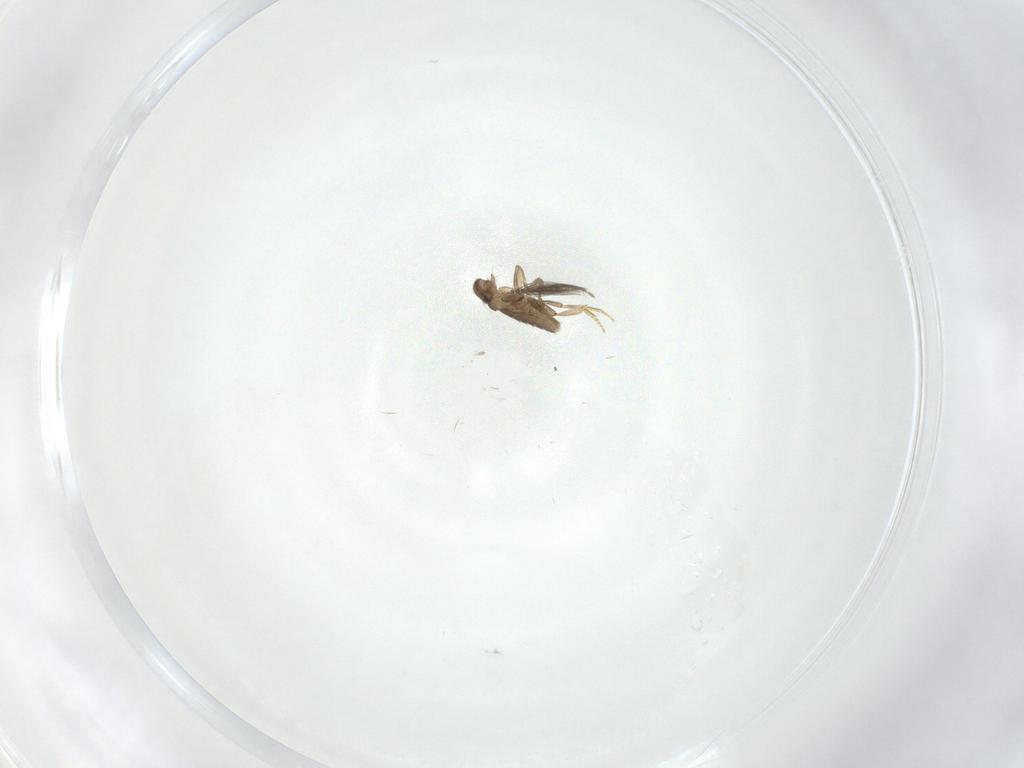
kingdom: Animalia
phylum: Arthropoda
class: Insecta
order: Diptera
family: Ceratopogonidae
